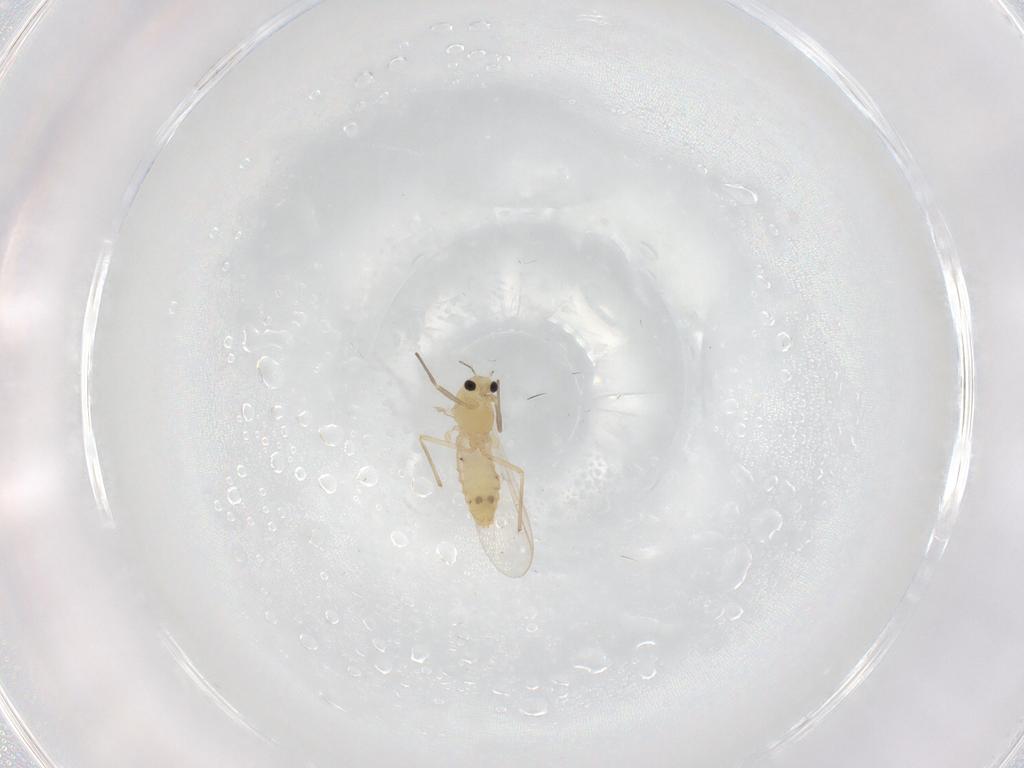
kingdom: Animalia
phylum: Arthropoda
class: Insecta
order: Diptera
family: Chironomidae
